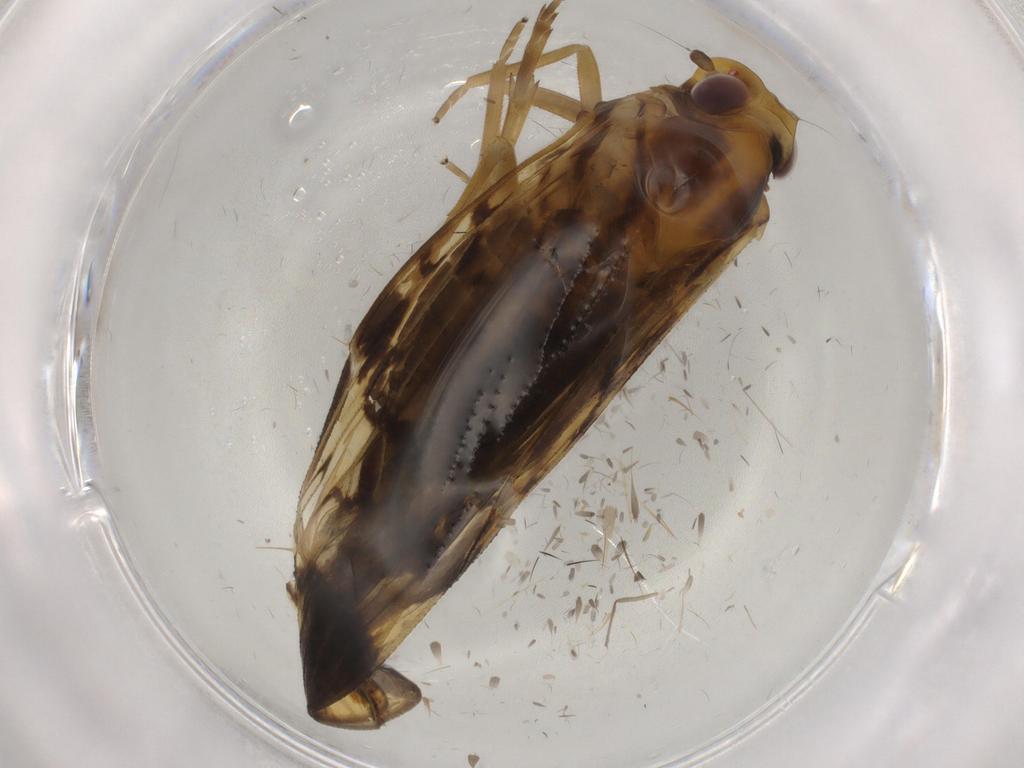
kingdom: Animalia
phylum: Arthropoda
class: Insecta
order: Hemiptera
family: Cixiidae
